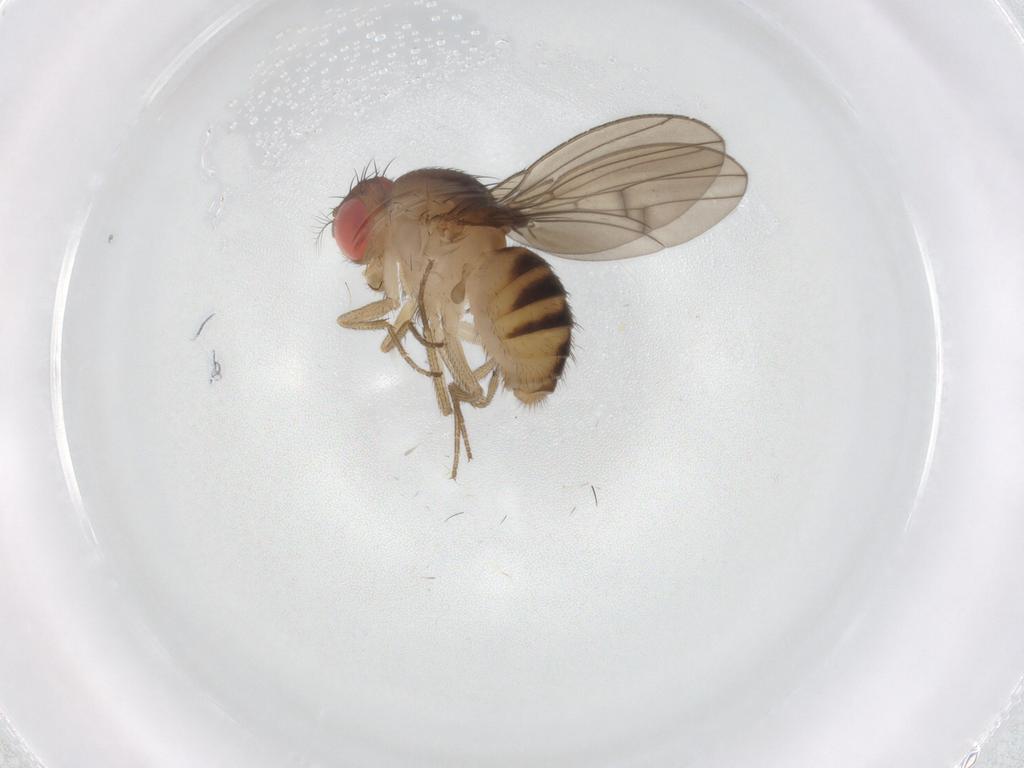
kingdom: Animalia
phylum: Arthropoda
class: Insecta
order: Diptera
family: Drosophilidae
